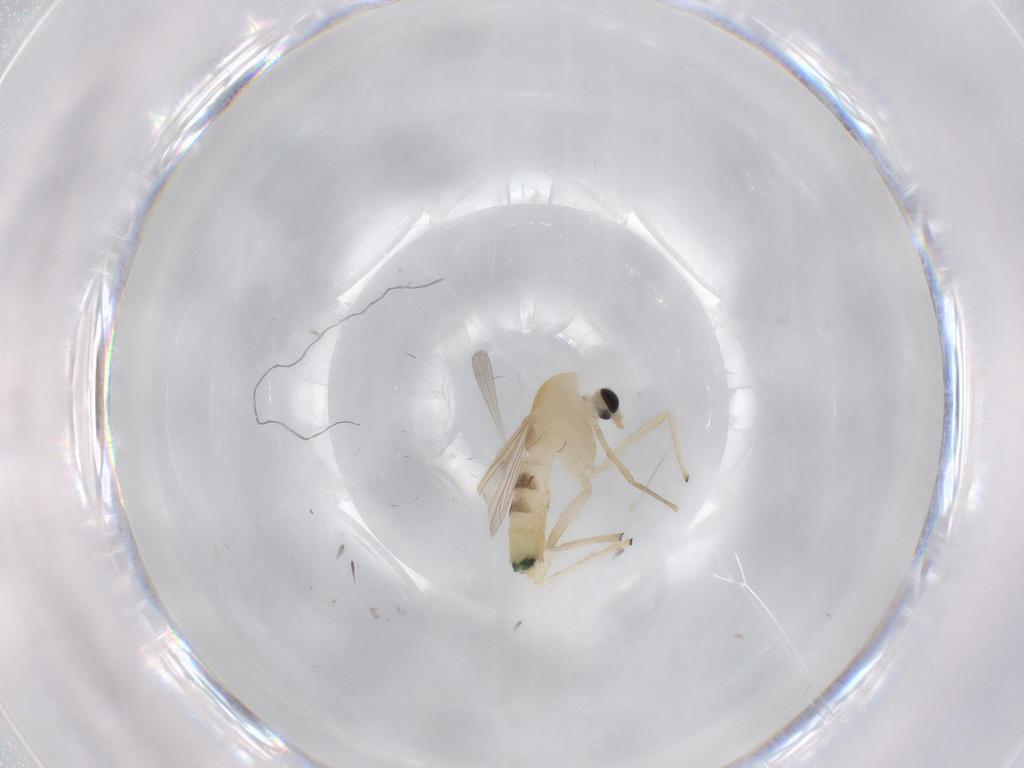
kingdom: Animalia
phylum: Arthropoda
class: Insecta
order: Diptera
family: Chironomidae
